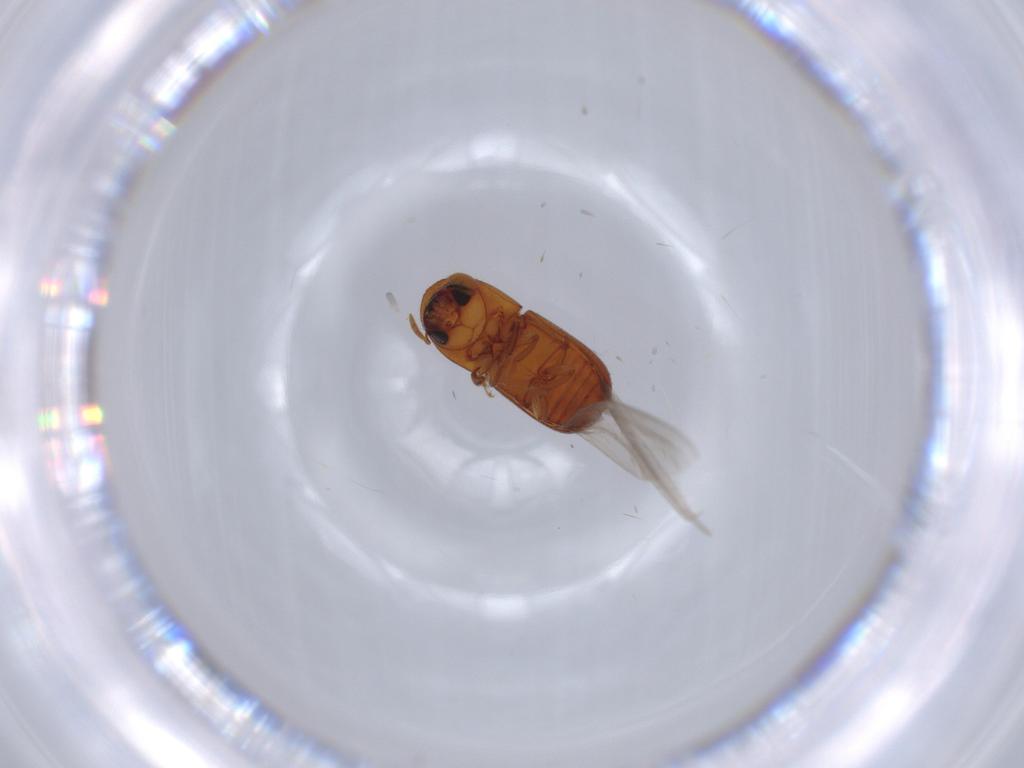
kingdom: Animalia
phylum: Arthropoda
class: Insecta
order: Coleoptera
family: Curculionidae
